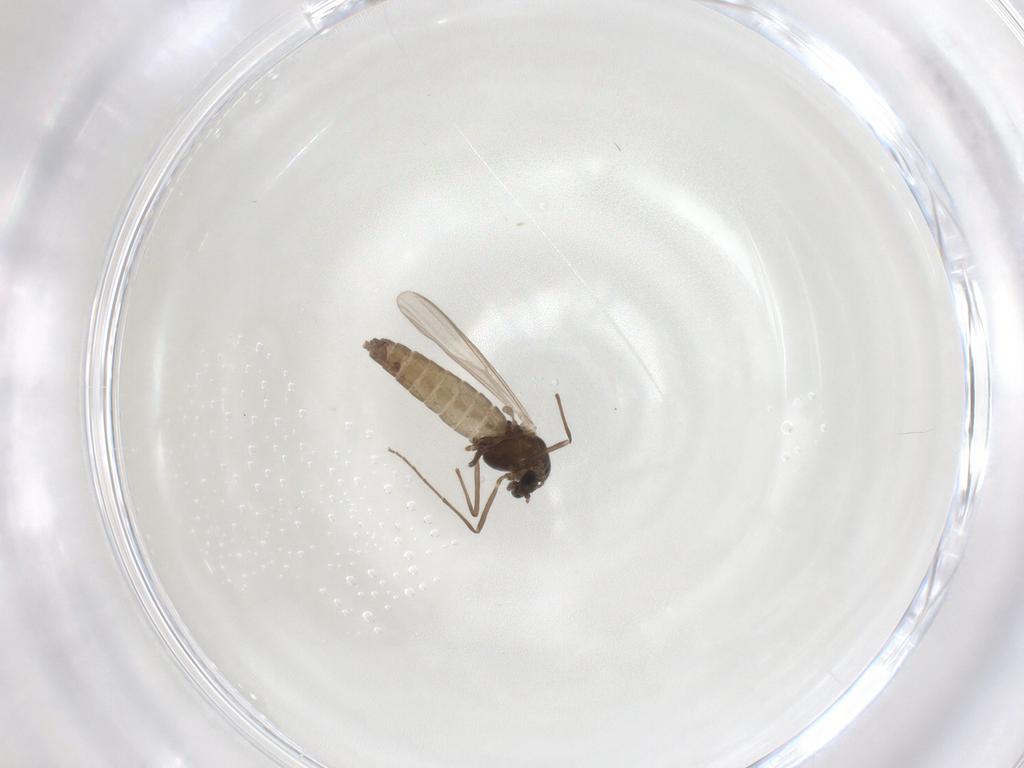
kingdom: Animalia
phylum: Arthropoda
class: Insecta
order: Diptera
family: Chironomidae
